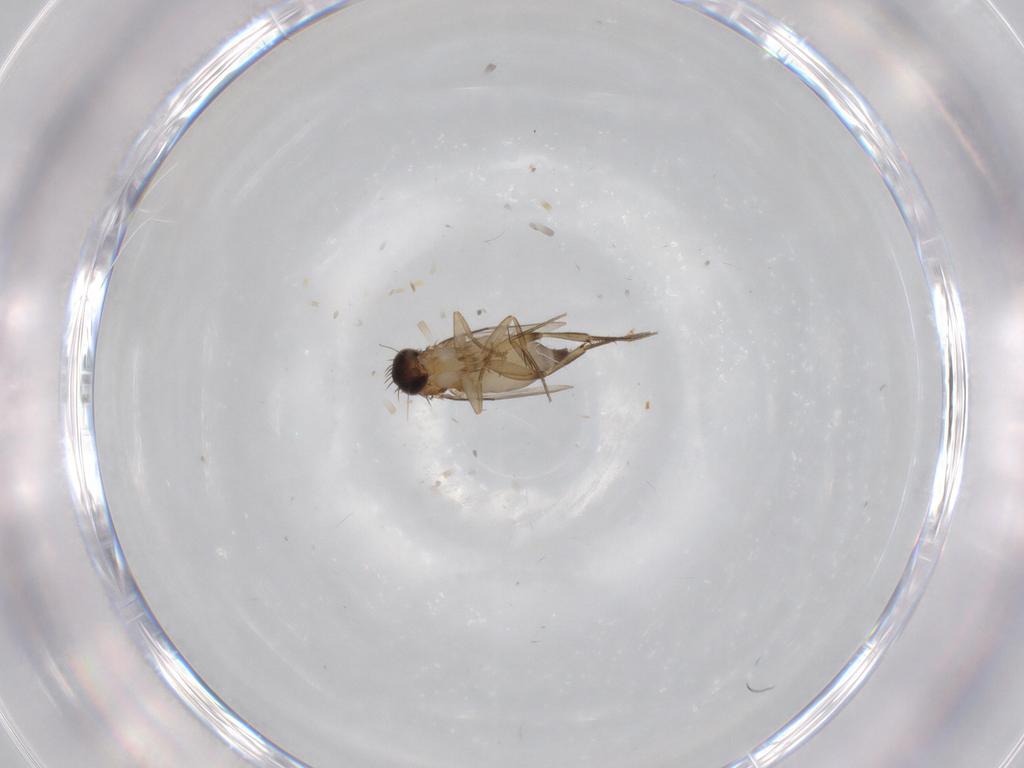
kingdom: Animalia
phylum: Arthropoda
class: Insecta
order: Diptera
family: Phoridae
